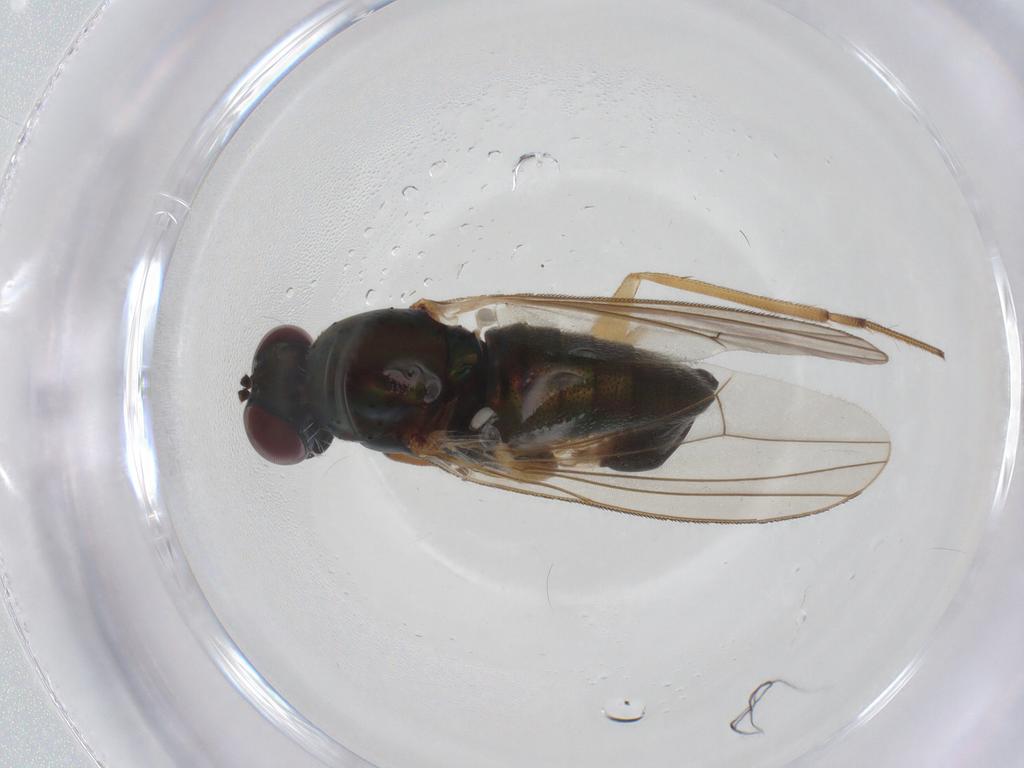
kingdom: Animalia
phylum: Arthropoda
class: Insecta
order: Diptera
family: Chironomidae
